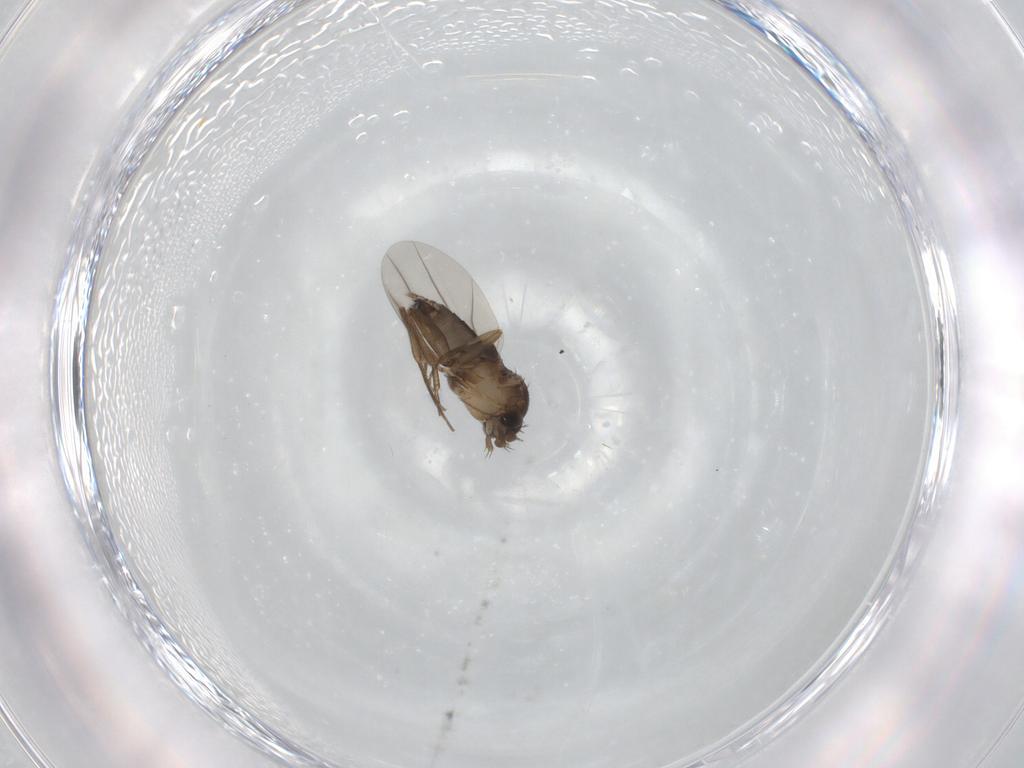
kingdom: Animalia
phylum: Arthropoda
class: Insecta
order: Diptera
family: Phoridae
